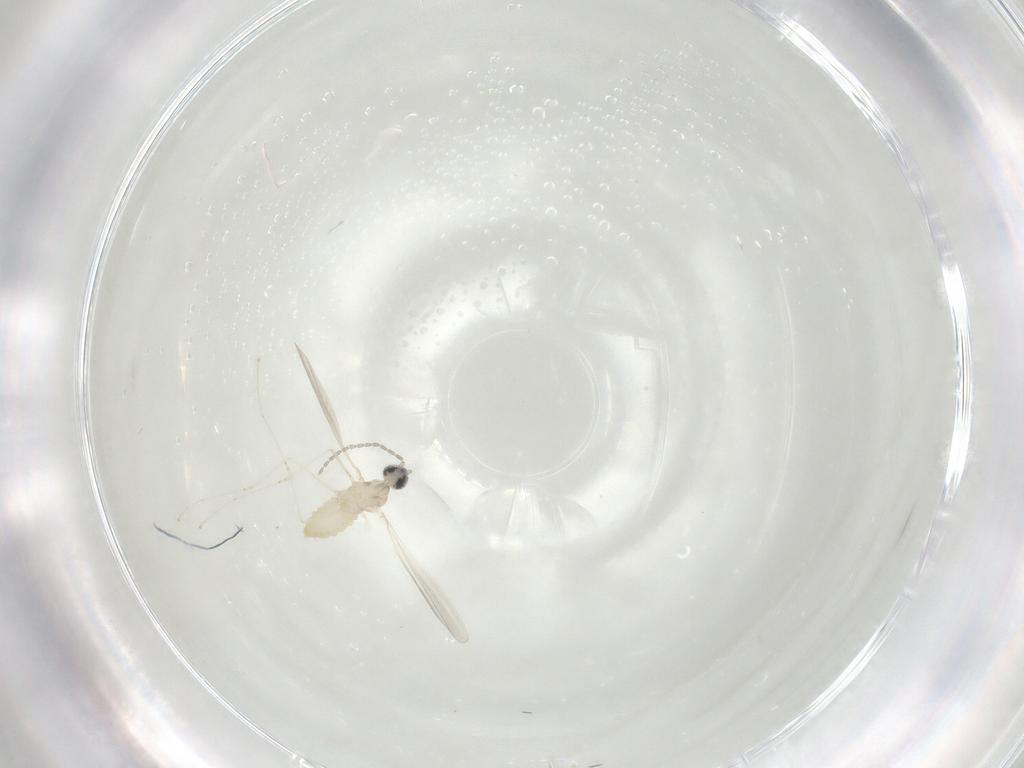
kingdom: Animalia
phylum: Arthropoda
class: Insecta
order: Diptera
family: Cecidomyiidae
